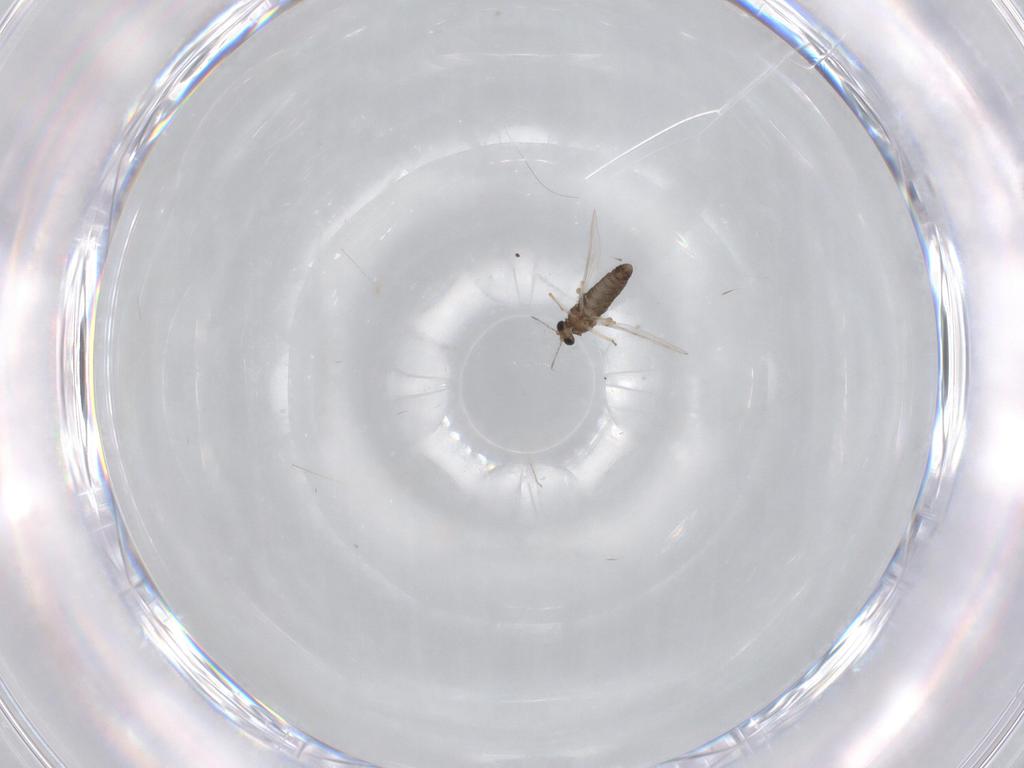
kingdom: Animalia
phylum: Arthropoda
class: Insecta
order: Diptera
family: Chironomidae
